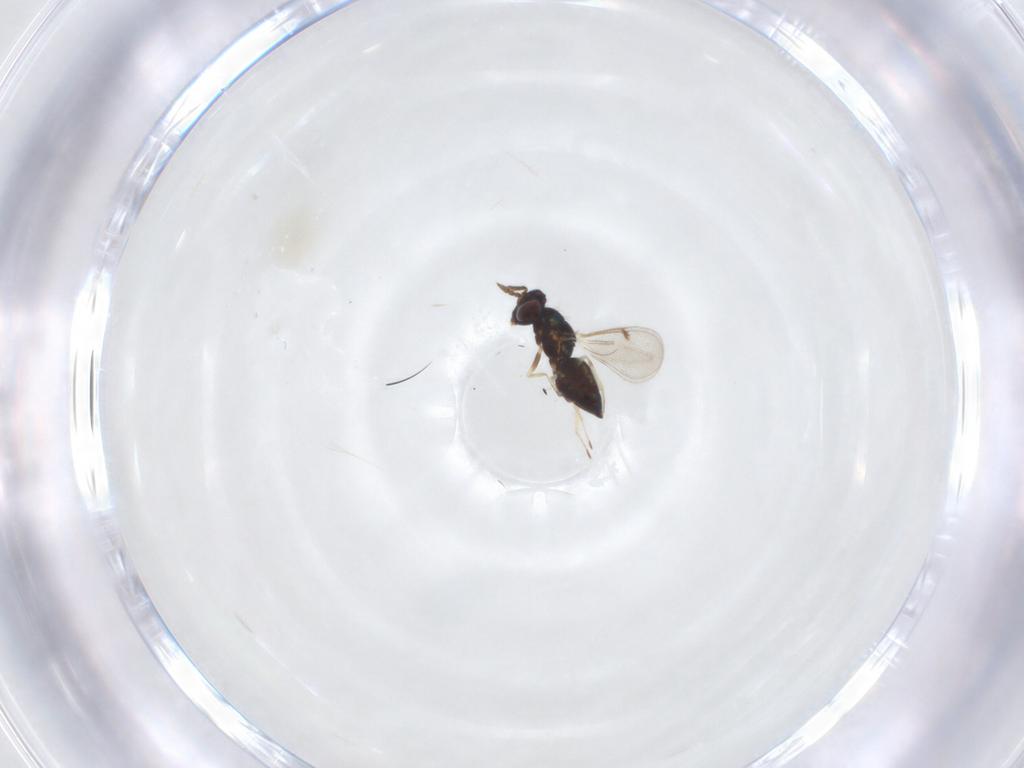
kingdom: Animalia
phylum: Arthropoda
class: Insecta
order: Hymenoptera
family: Eulophidae
